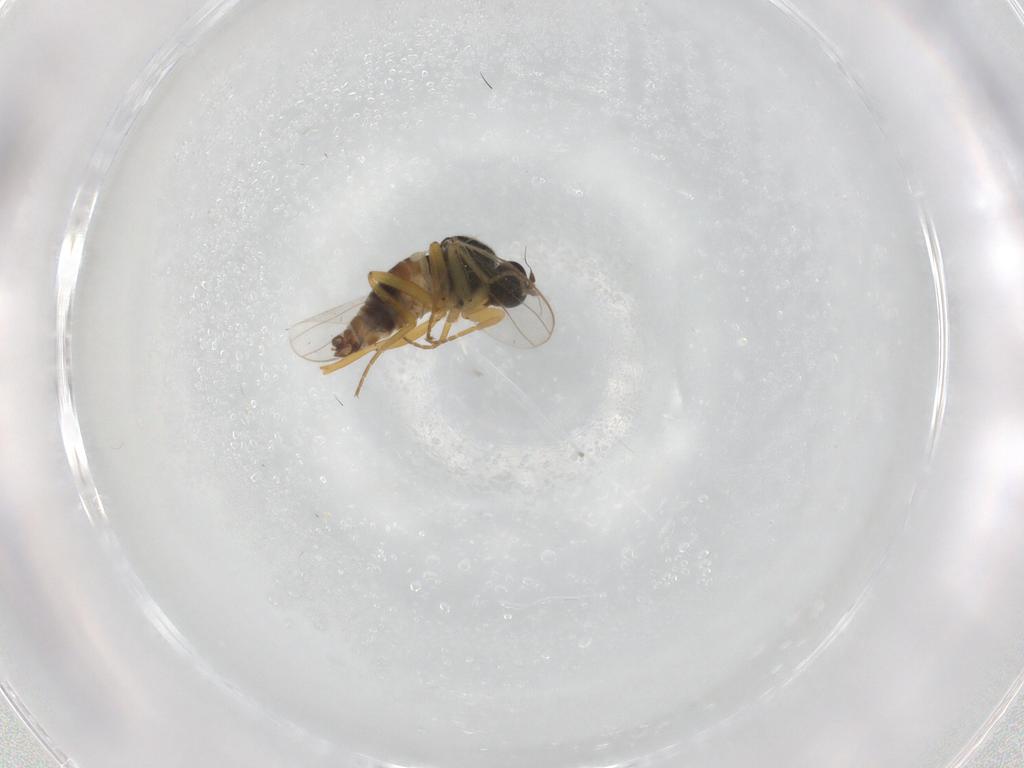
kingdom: Animalia
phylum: Arthropoda
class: Insecta
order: Diptera
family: Hybotidae
